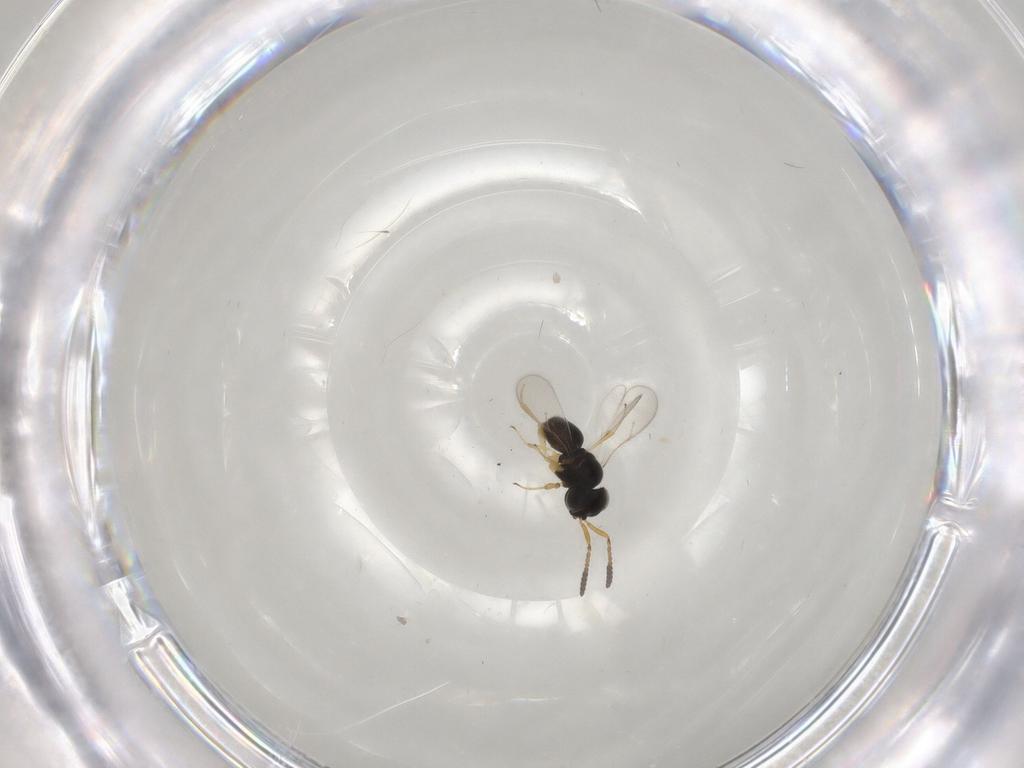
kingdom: Animalia
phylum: Arthropoda
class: Insecta
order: Hymenoptera
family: Scelionidae
